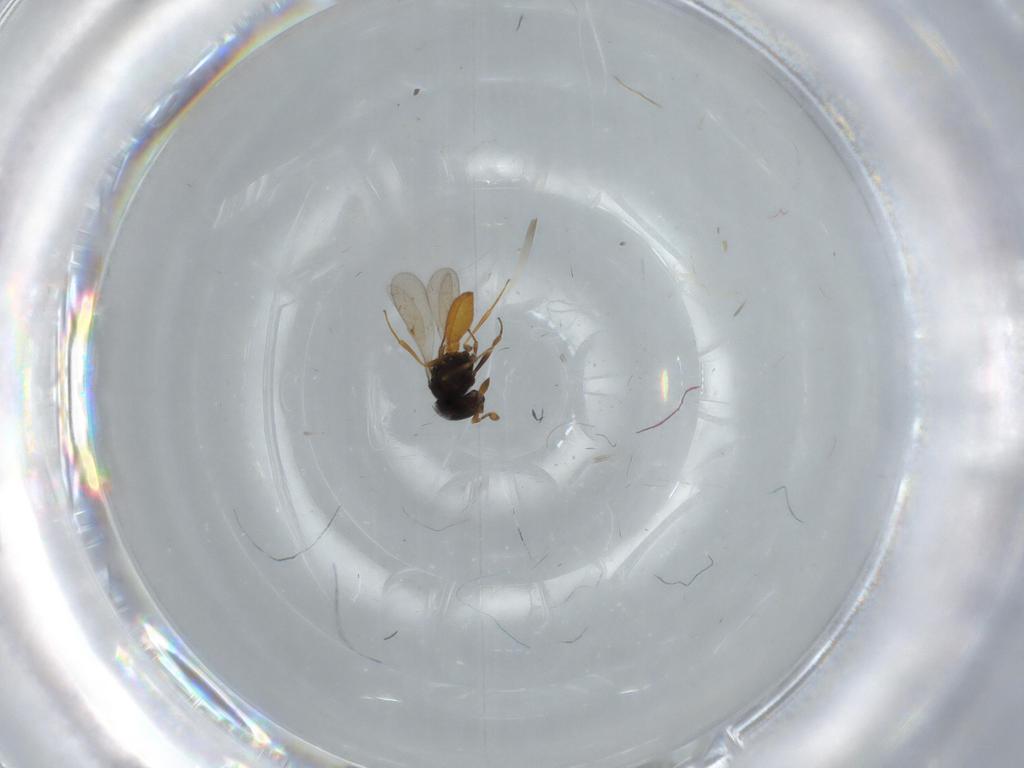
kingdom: Animalia
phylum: Arthropoda
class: Insecta
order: Hymenoptera
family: Scelionidae
